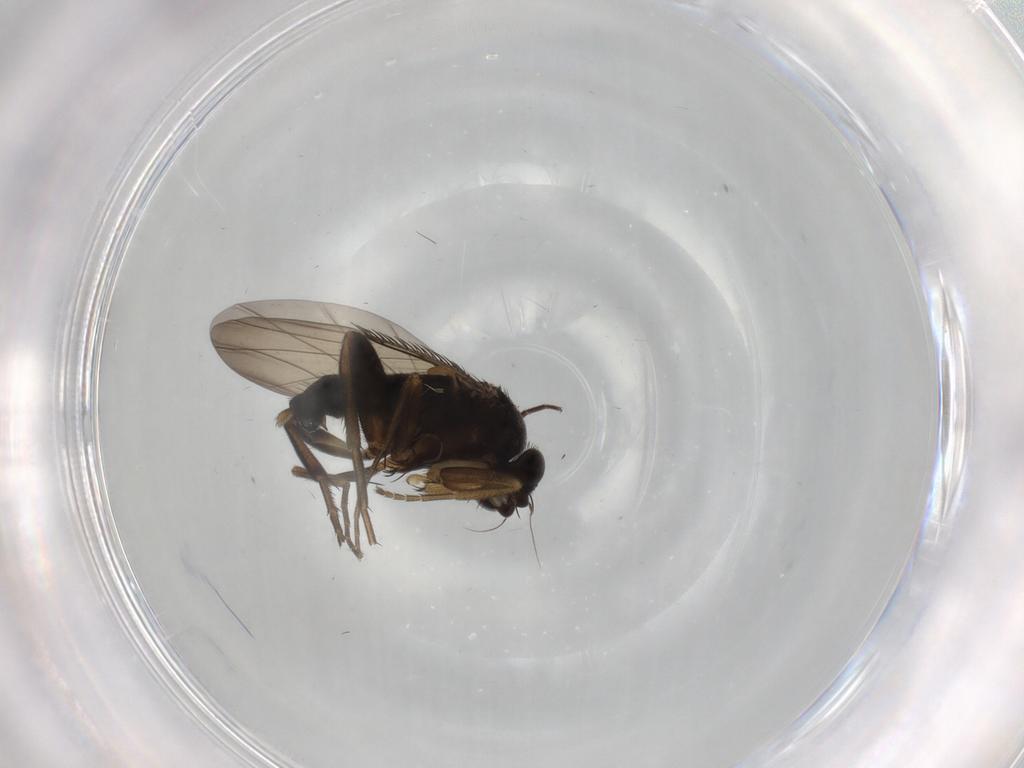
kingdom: Animalia
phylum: Arthropoda
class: Insecta
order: Diptera
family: Phoridae
